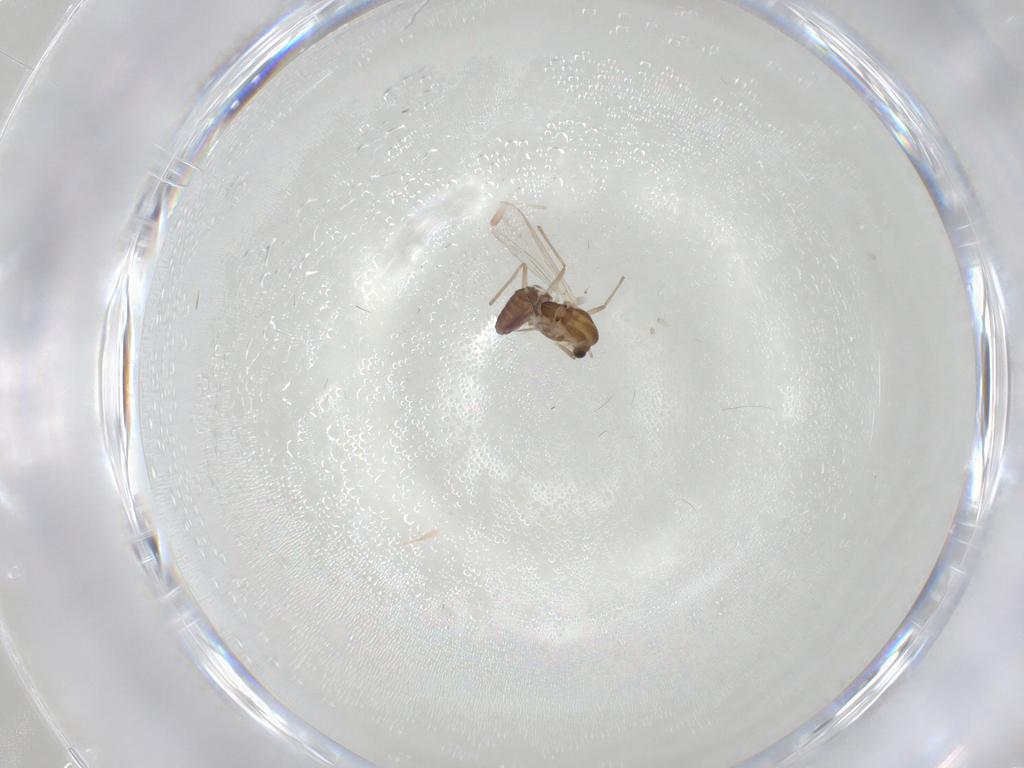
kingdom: Animalia
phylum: Arthropoda
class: Insecta
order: Diptera
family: Chironomidae
